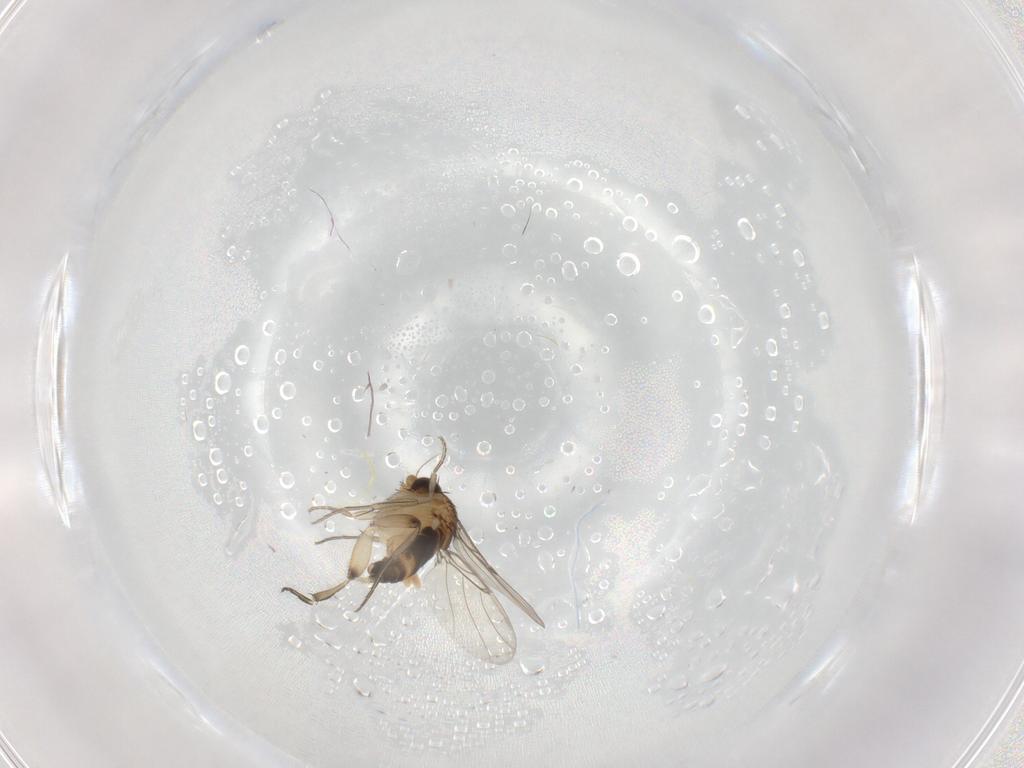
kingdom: Animalia
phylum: Arthropoda
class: Insecta
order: Diptera
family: Phoridae
